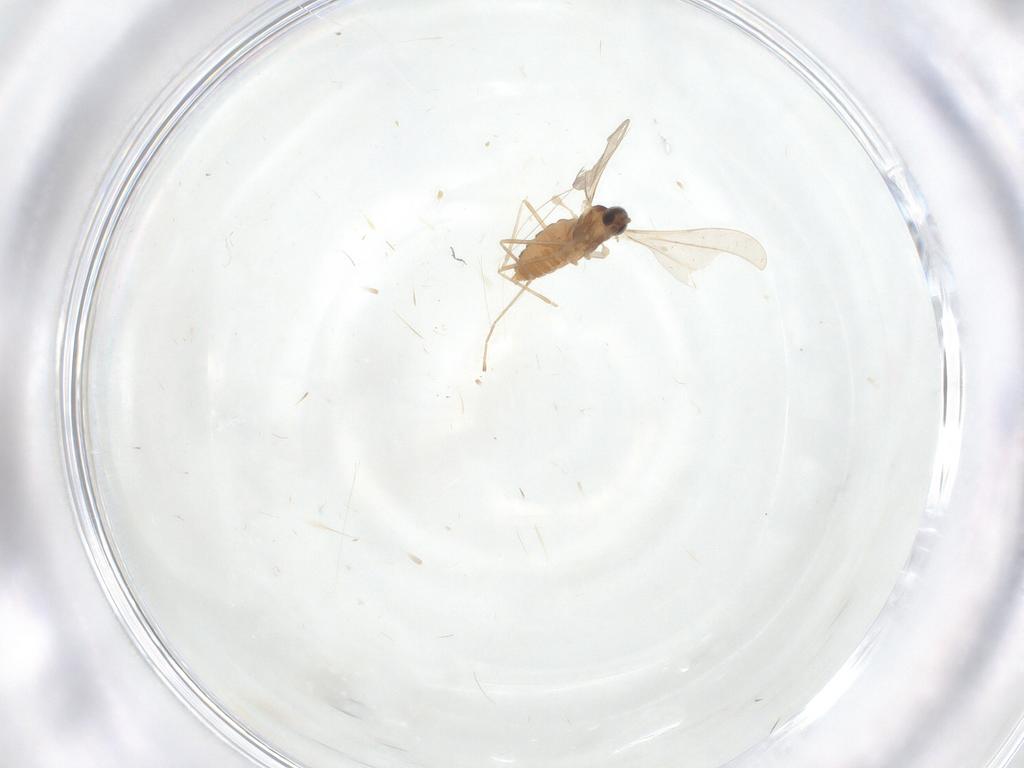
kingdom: Animalia
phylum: Arthropoda
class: Insecta
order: Diptera
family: Cecidomyiidae
